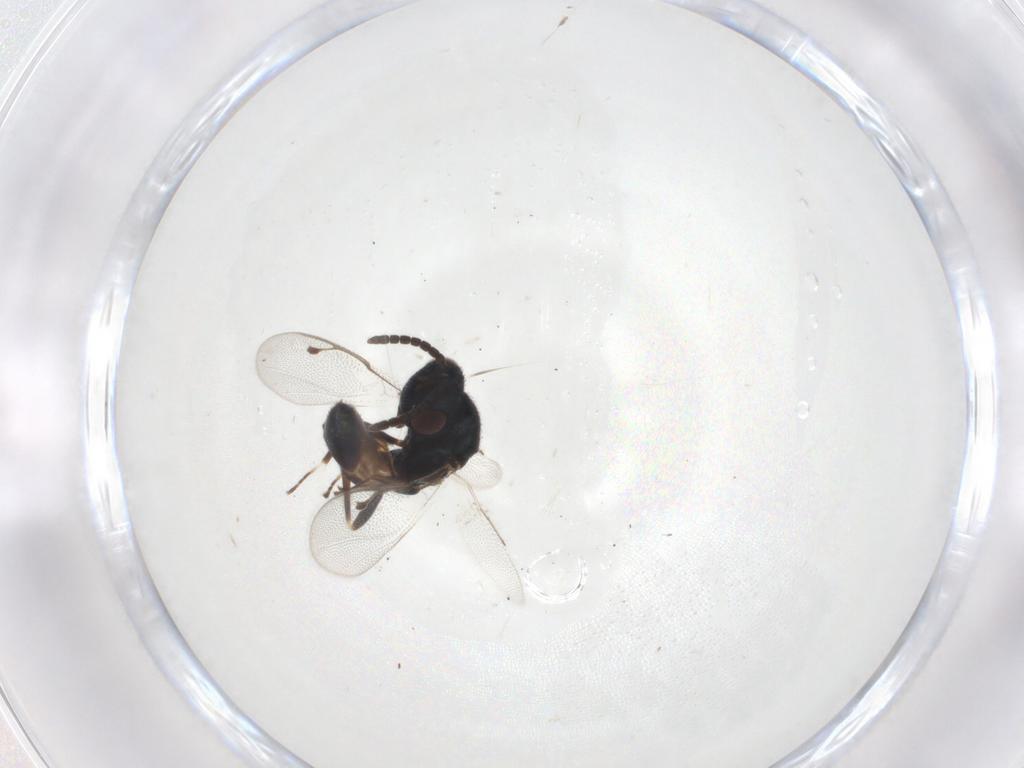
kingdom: Animalia
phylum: Arthropoda
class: Insecta
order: Hymenoptera
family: Pteromalidae
